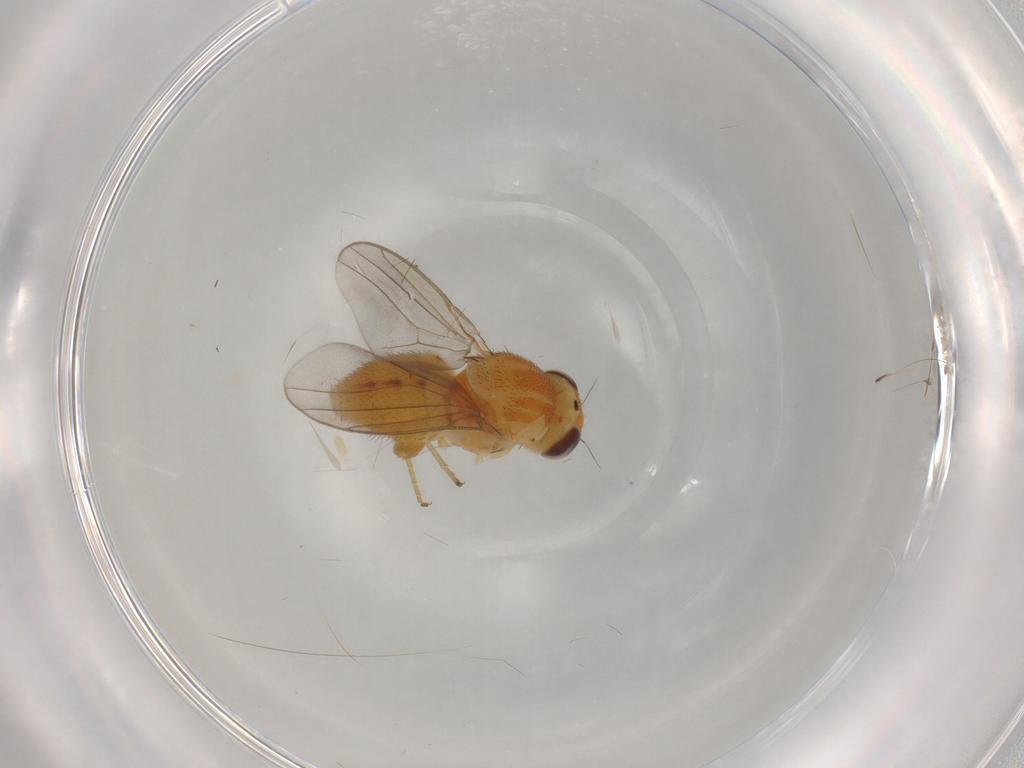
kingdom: Animalia
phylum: Arthropoda
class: Insecta
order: Diptera
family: Chloropidae
